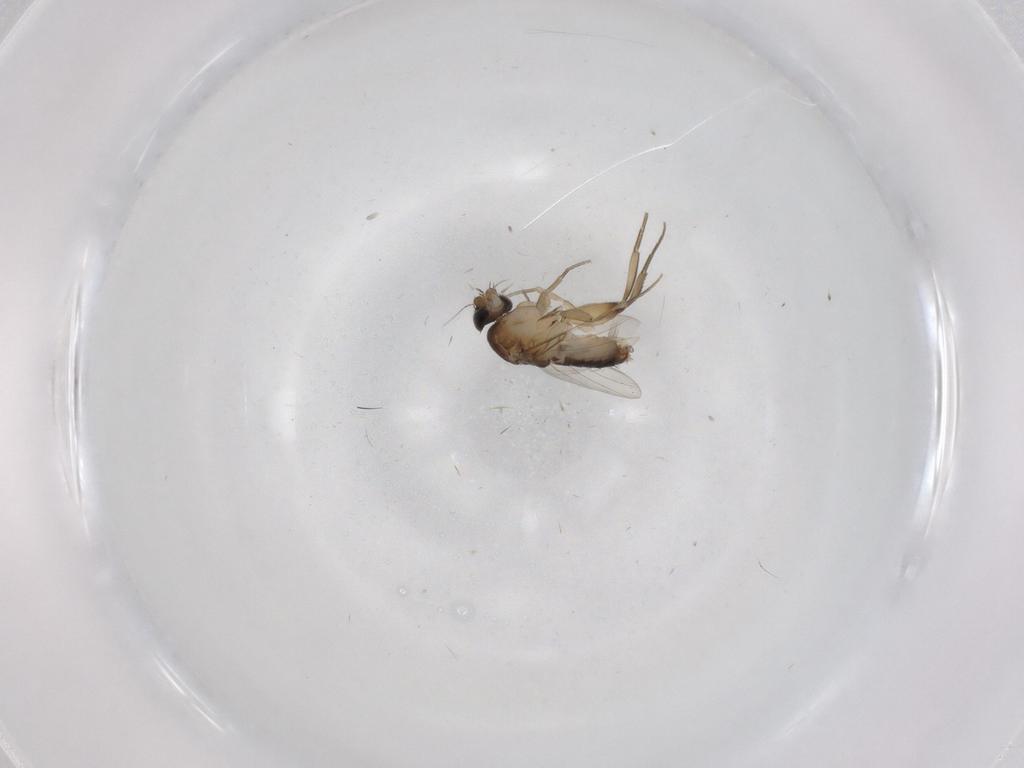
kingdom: Animalia
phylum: Arthropoda
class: Insecta
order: Diptera
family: Phoridae
